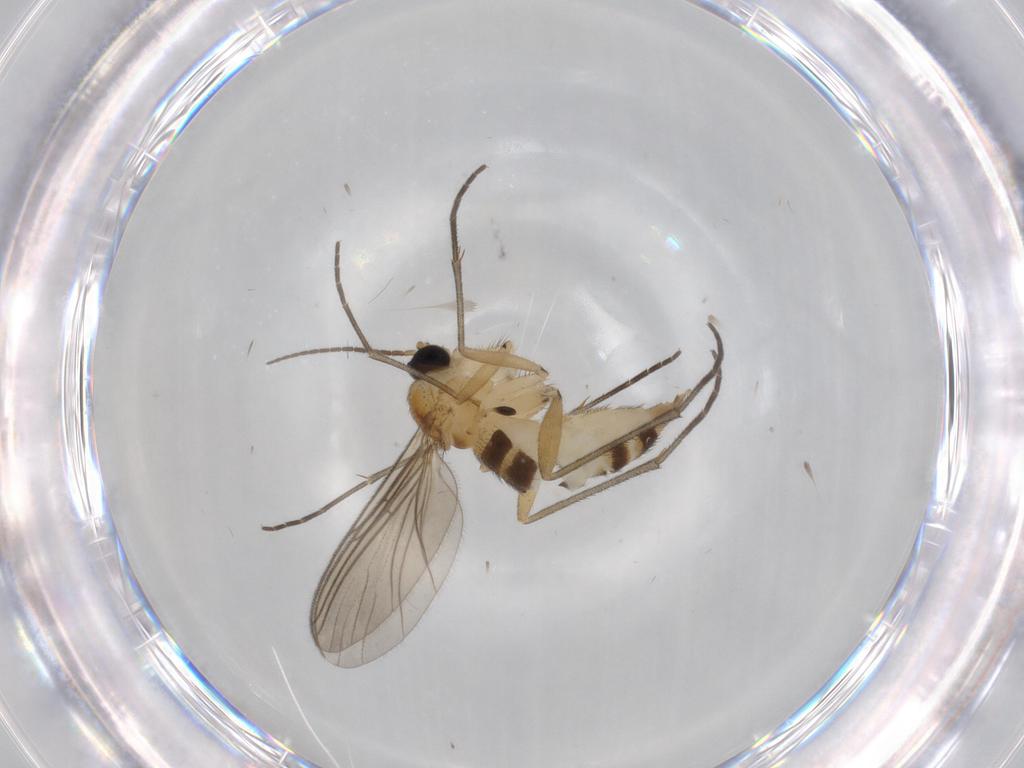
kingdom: Animalia
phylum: Arthropoda
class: Insecta
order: Diptera
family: Sciaridae
